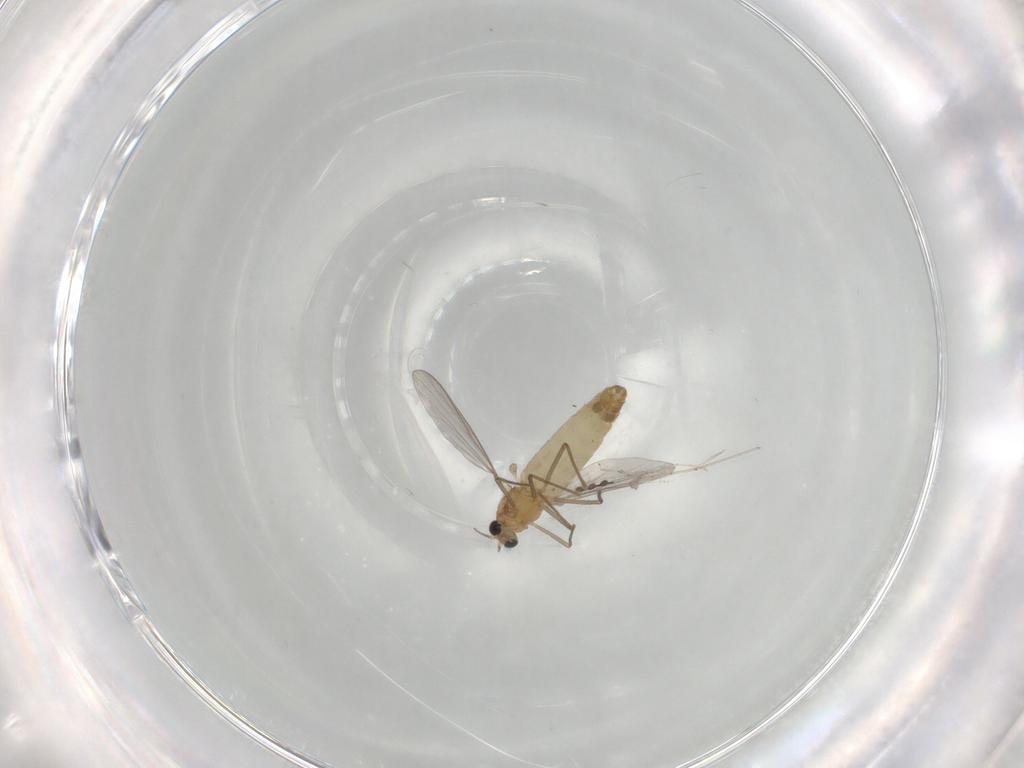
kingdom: Animalia
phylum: Arthropoda
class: Insecta
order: Diptera
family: Chironomidae
